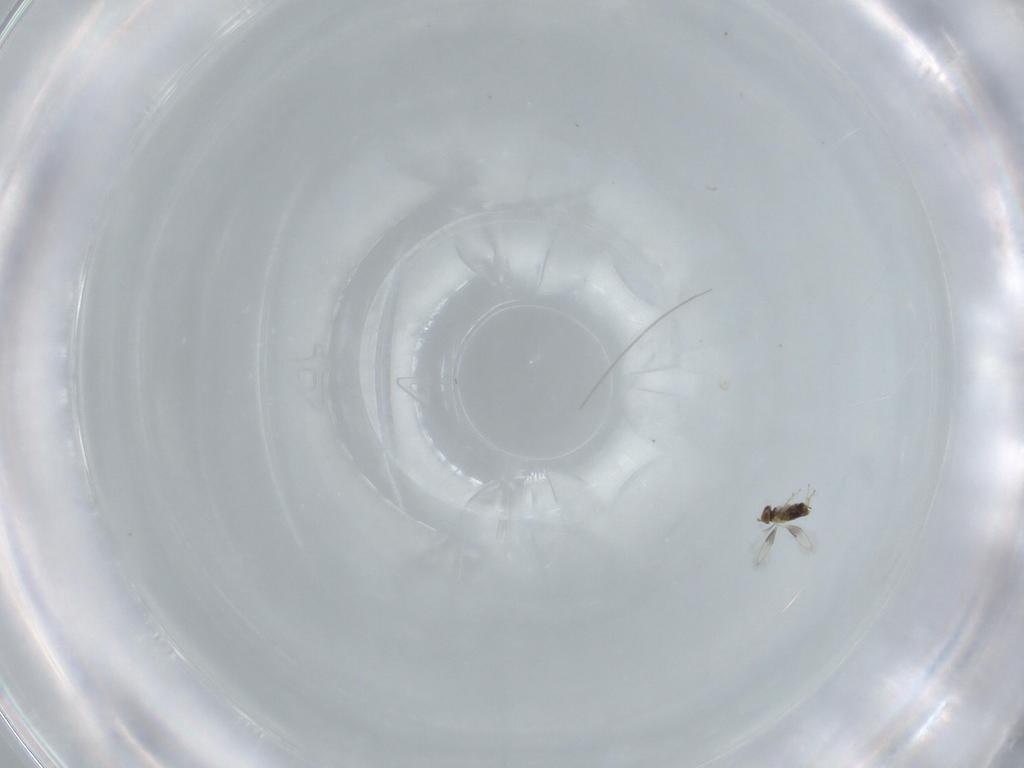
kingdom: Animalia
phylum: Arthropoda
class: Insecta
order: Hymenoptera
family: Aphelinidae
